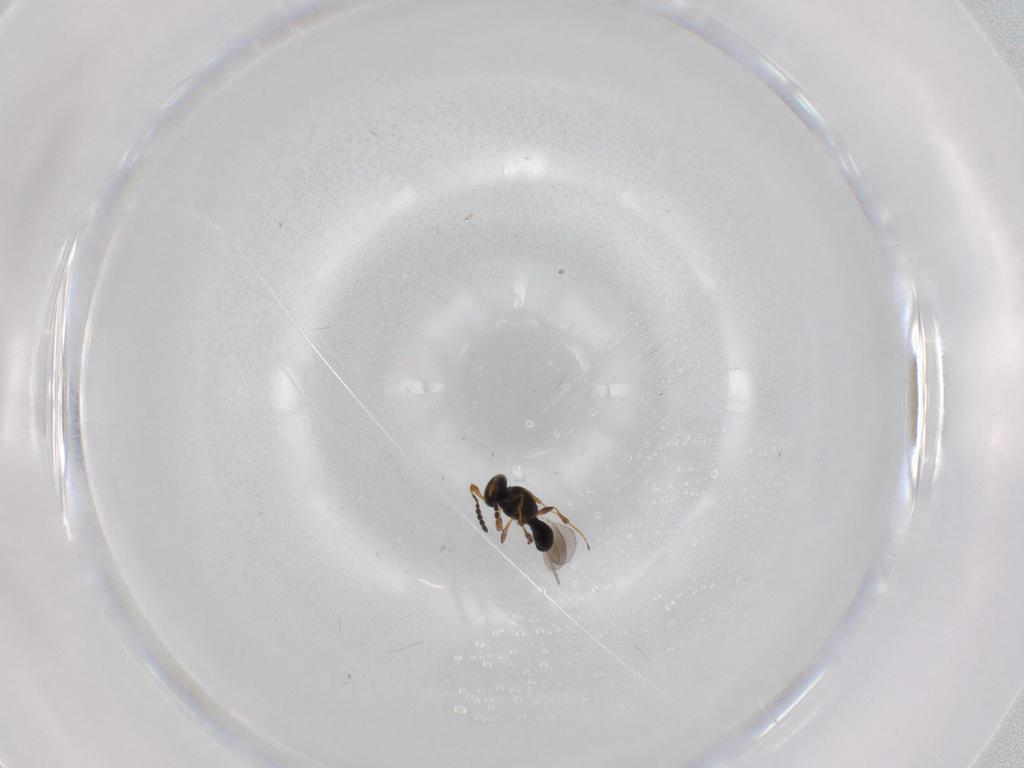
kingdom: Animalia
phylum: Arthropoda
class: Insecta
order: Hymenoptera
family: Platygastridae
